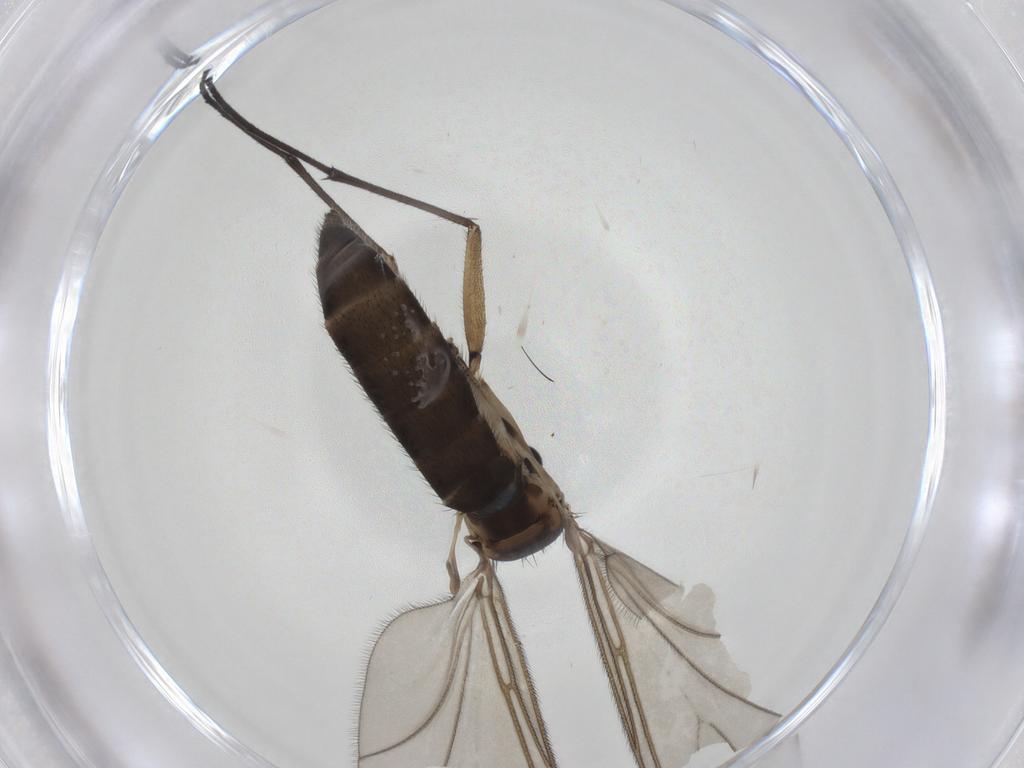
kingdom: Animalia
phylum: Arthropoda
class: Insecta
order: Diptera
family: Sciaridae
